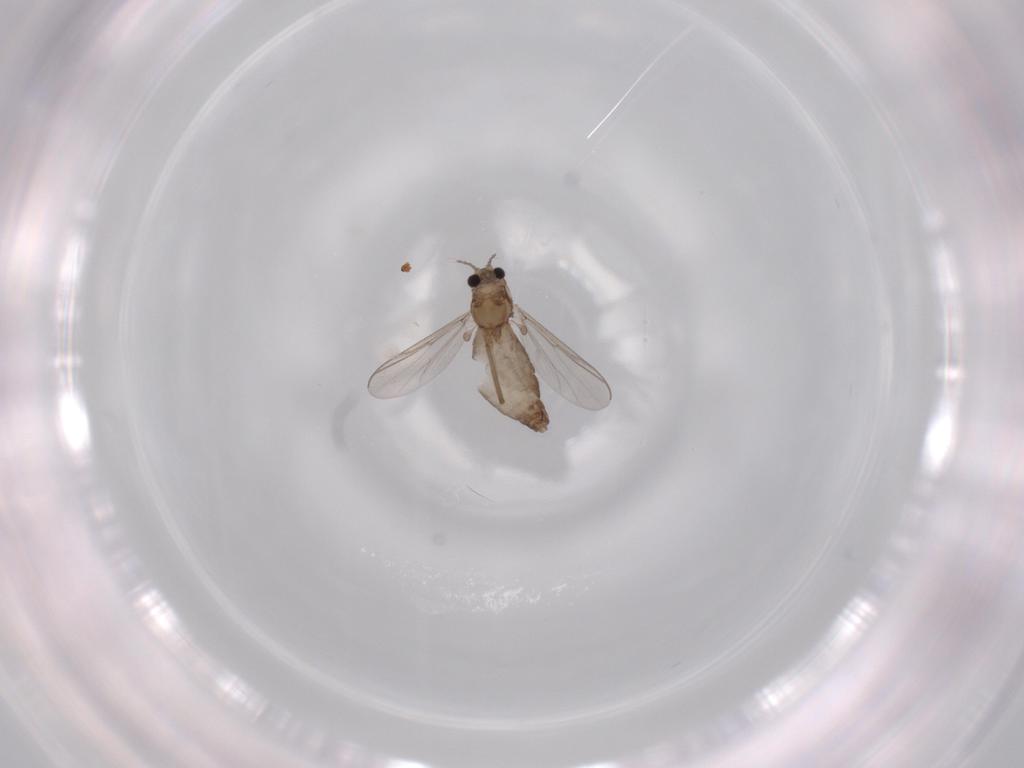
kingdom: Animalia
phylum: Arthropoda
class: Insecta
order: Diptera
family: Chironomidae
